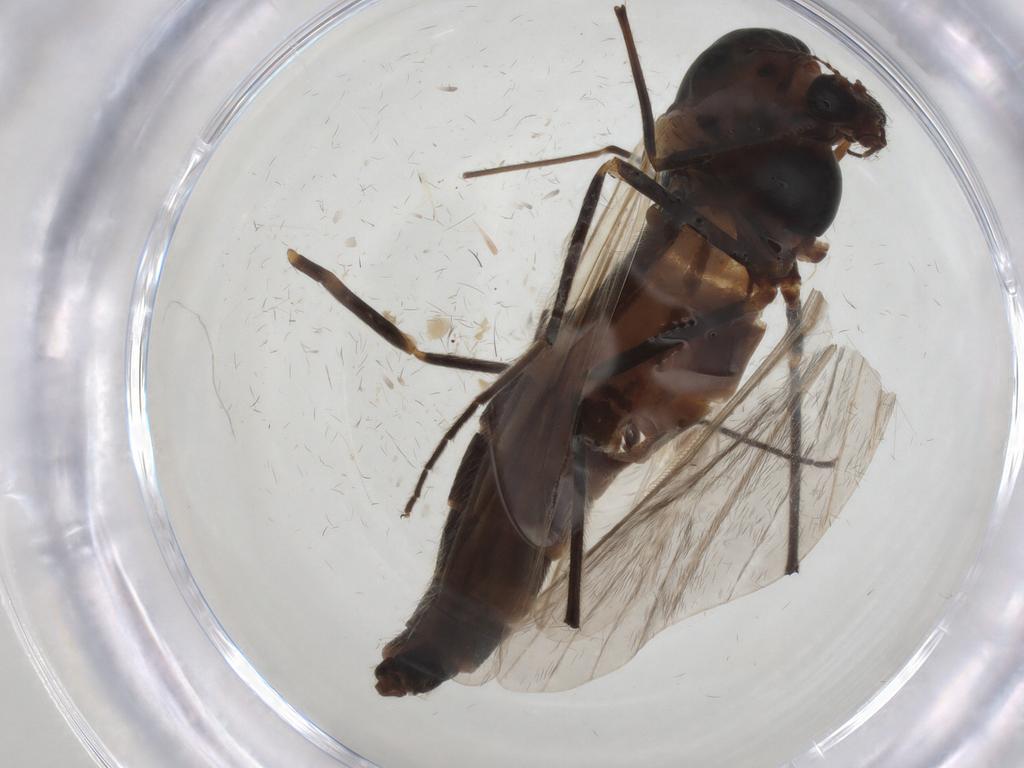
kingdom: Animalia
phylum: Arthropoda
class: Insecta
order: Diptera
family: Chironomidae
